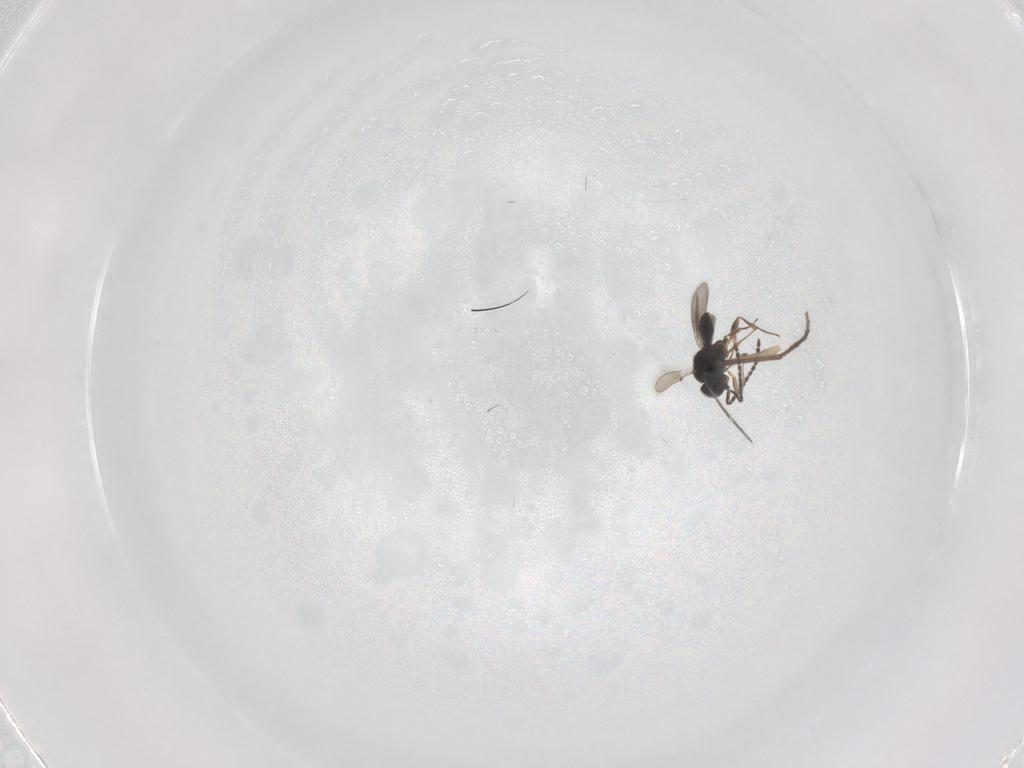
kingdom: Animalia
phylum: Arthropoda
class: Insecta
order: Hymenoptera
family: Scelionidae
